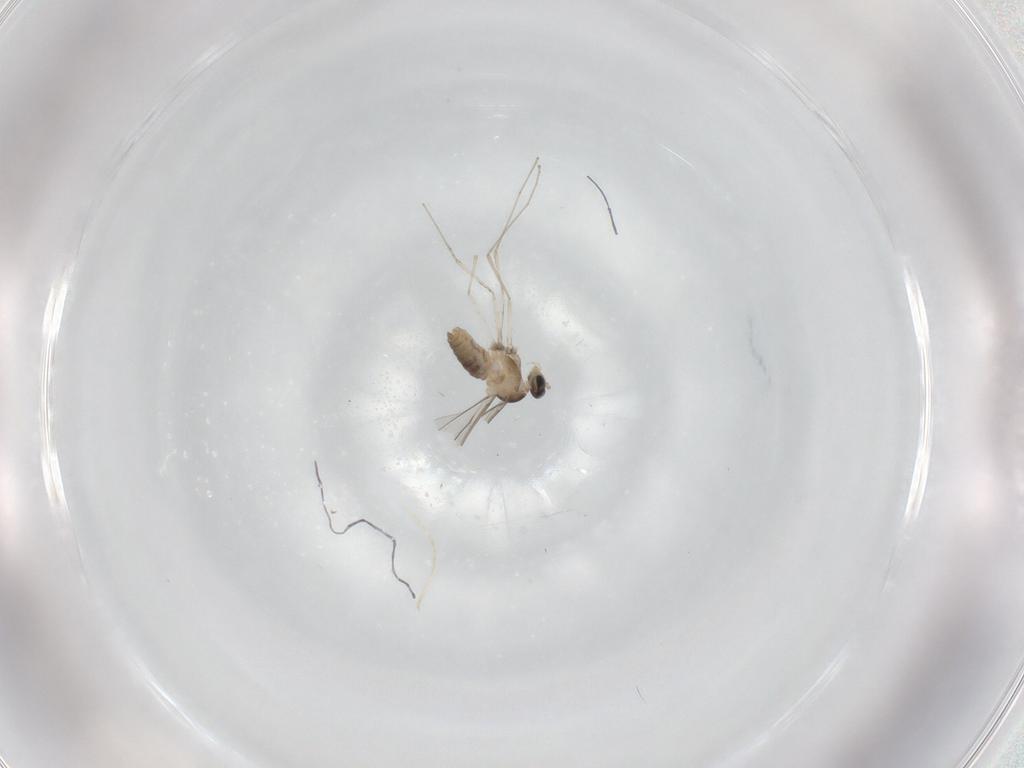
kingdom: Animalia
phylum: Arthropoda
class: Insecta
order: Diptera
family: Cecidomyiidae
